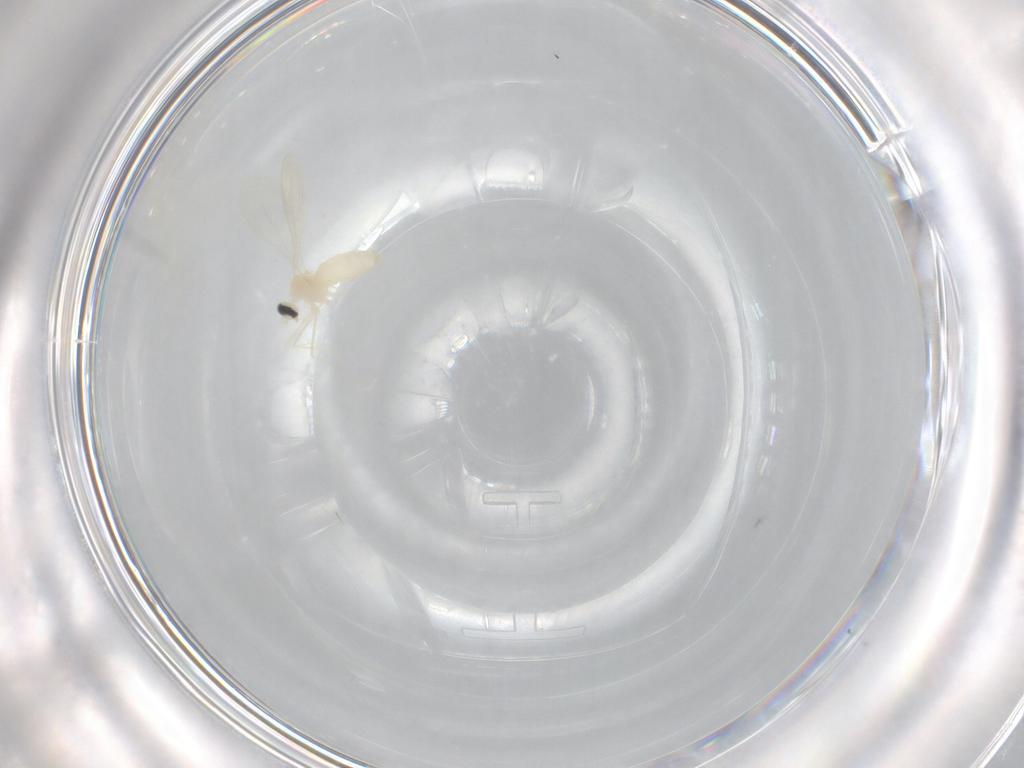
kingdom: Animalia
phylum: Arthropoda
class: Insecta
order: Diptera
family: Cecidomyiidae
